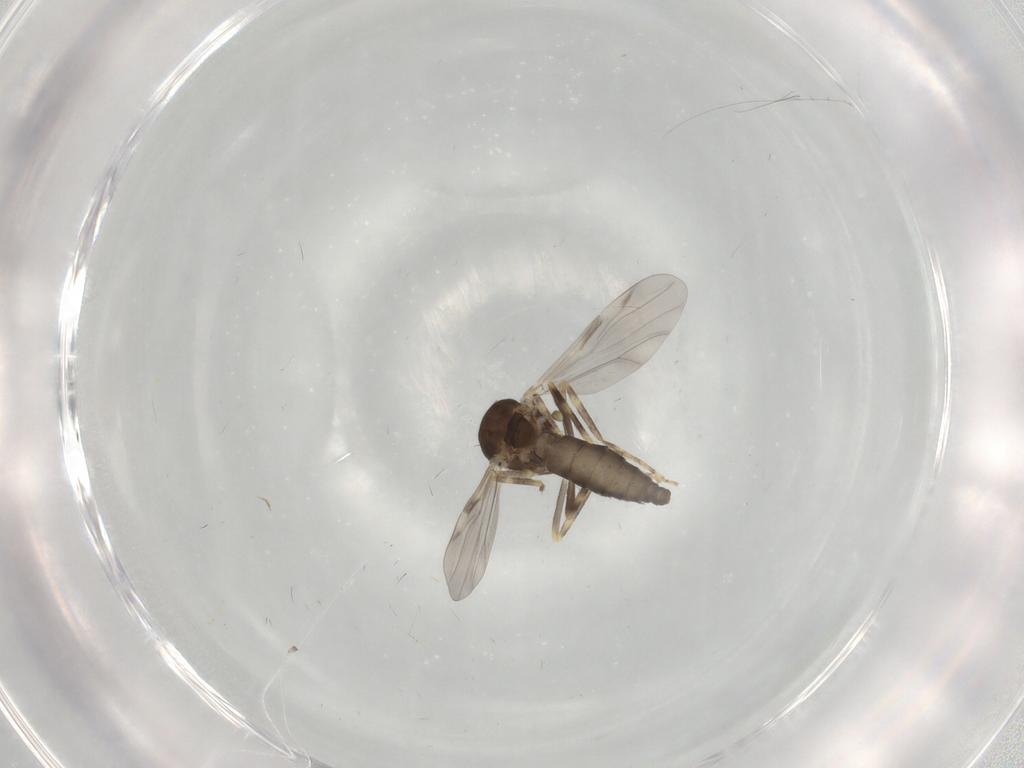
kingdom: Animalia
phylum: Arthropoda
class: Insecta
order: Diptera
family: Ceratopogonidae
